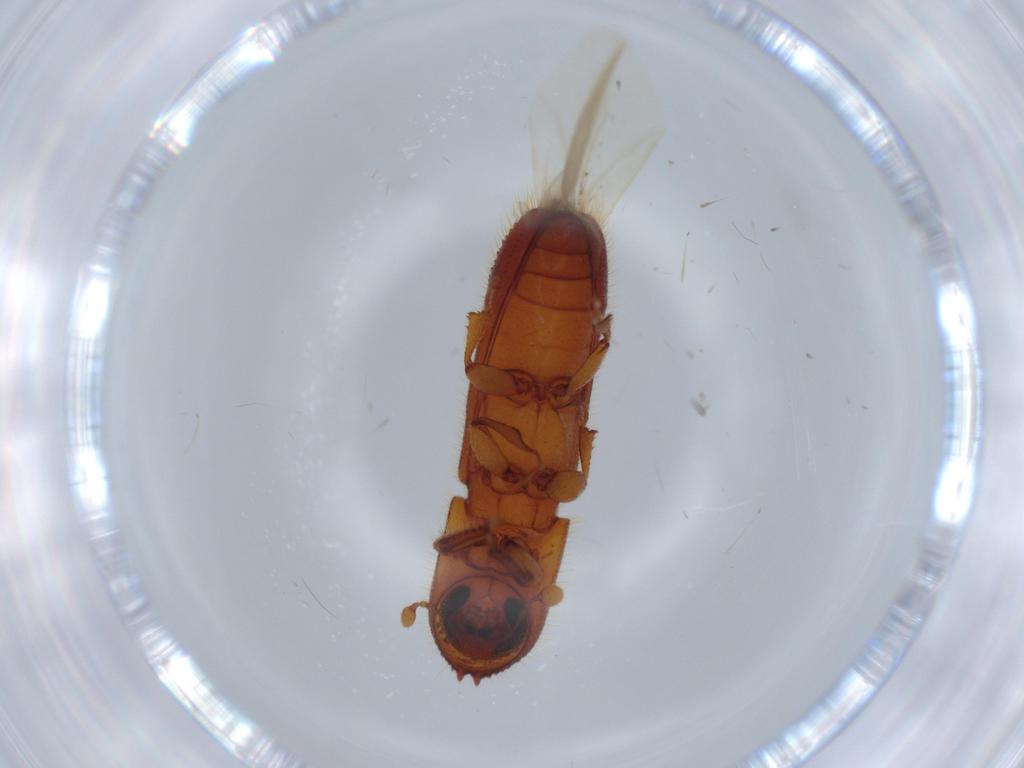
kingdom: Animalia
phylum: Arthropoda
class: Insecta
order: Coleoptera
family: Curculionidae
